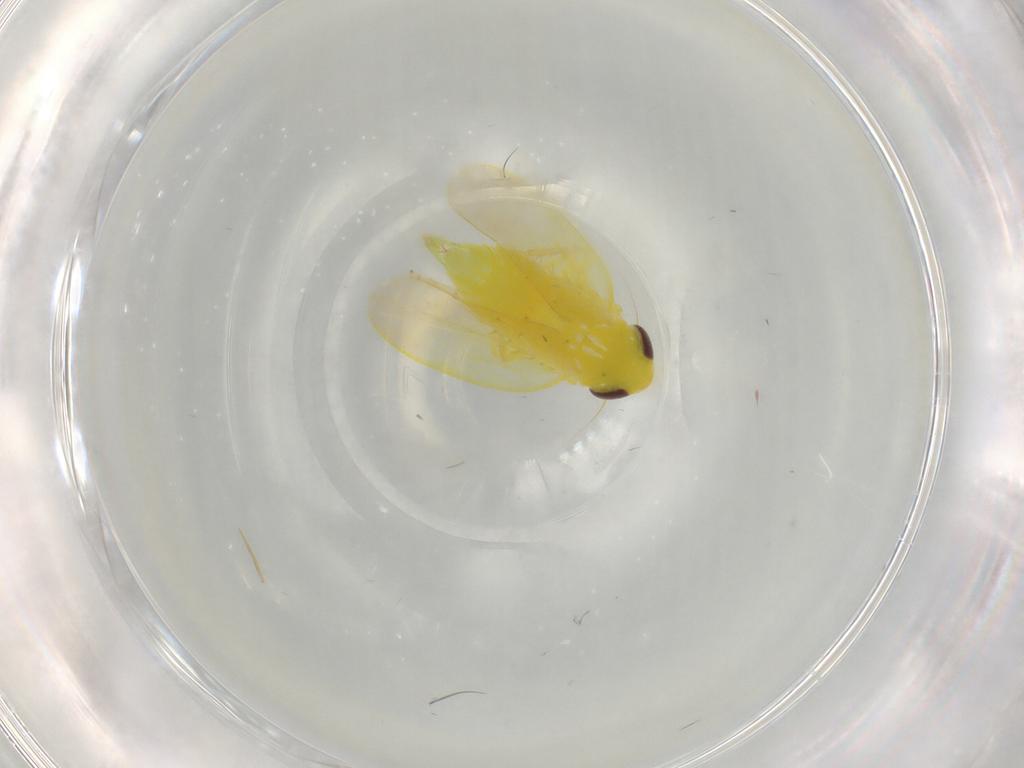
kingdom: Animalia
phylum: Arthropoda
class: Insecta
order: Hemiptera
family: Cicadellidae
